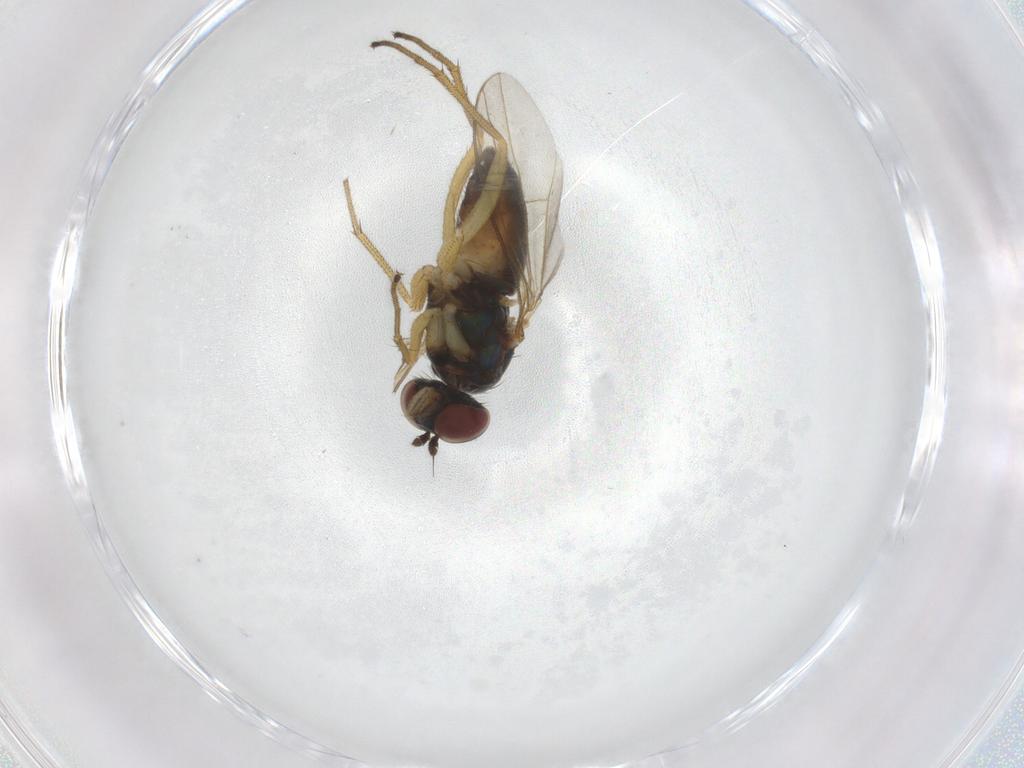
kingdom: Animalia
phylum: Arthropoda
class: Insecta
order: Diptera
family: Dolichopodidae
